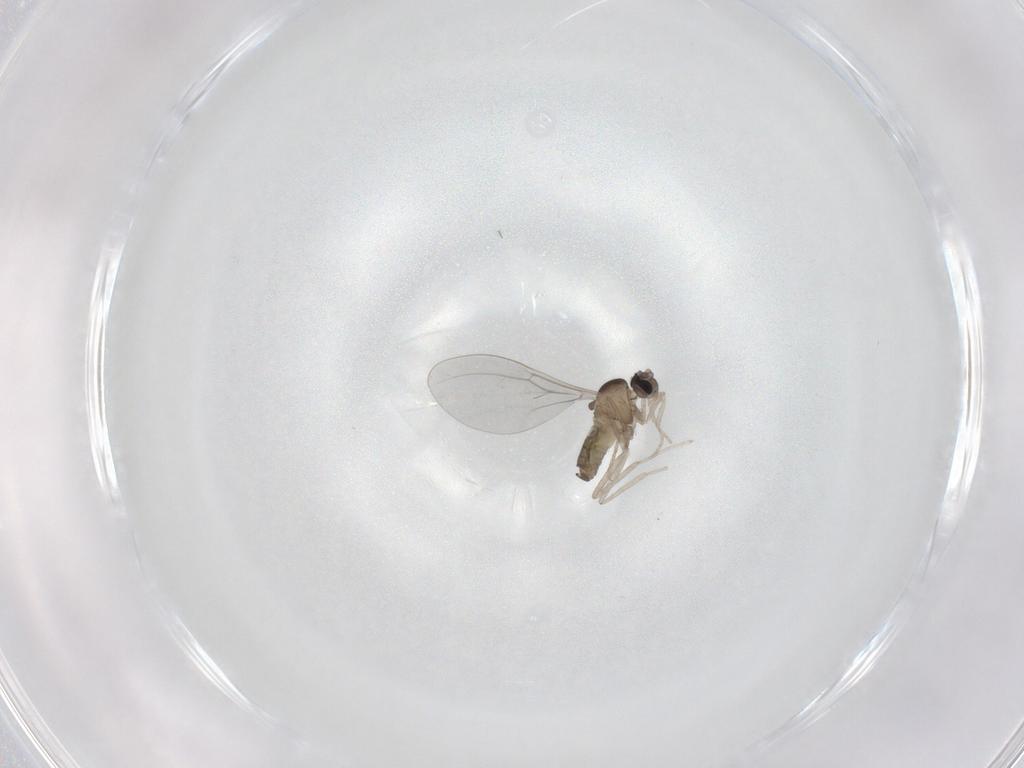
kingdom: Animalia
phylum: Arthropoda
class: Insecta
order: Diptera
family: Cecidomyiidae
